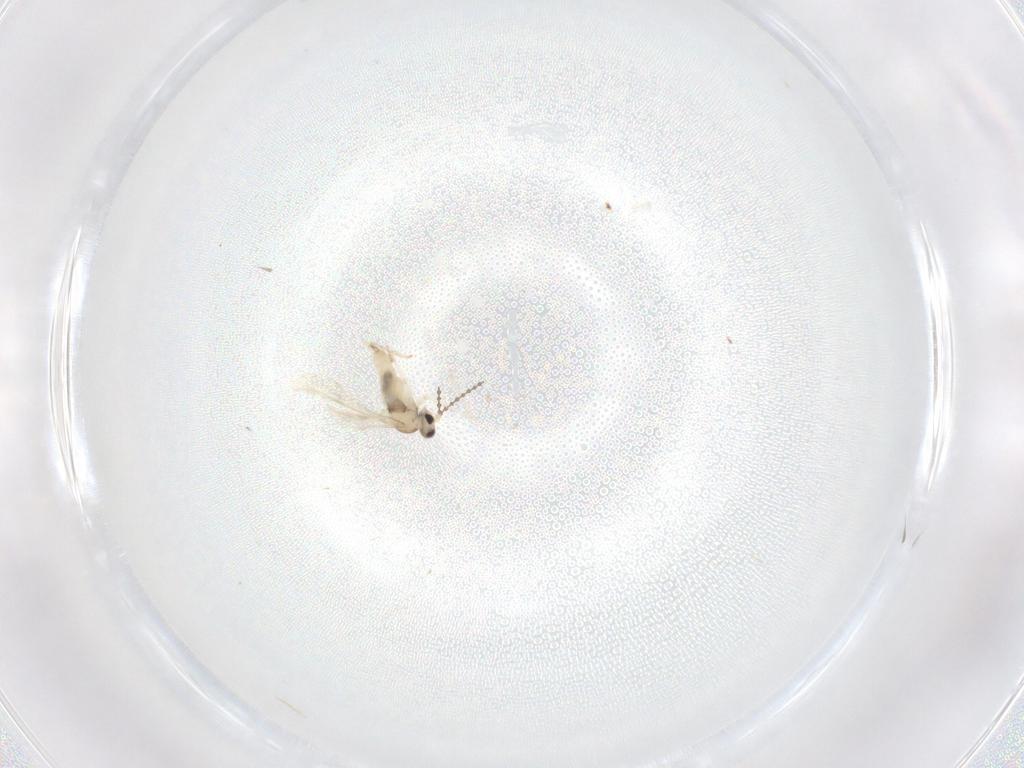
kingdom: Animalia
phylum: Arthropoda
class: Insecta
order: Diptera
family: Cecidomyiidae
